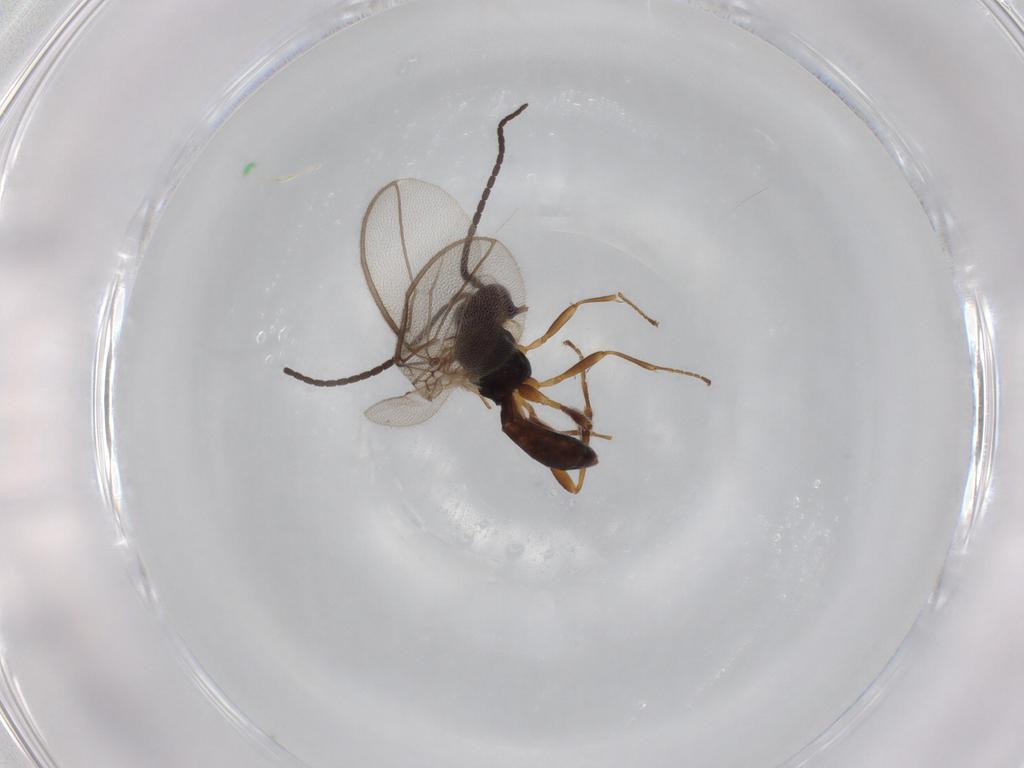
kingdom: Animalia
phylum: Arthropoda
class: Insecta
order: Hymenoptera
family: Braconidae
